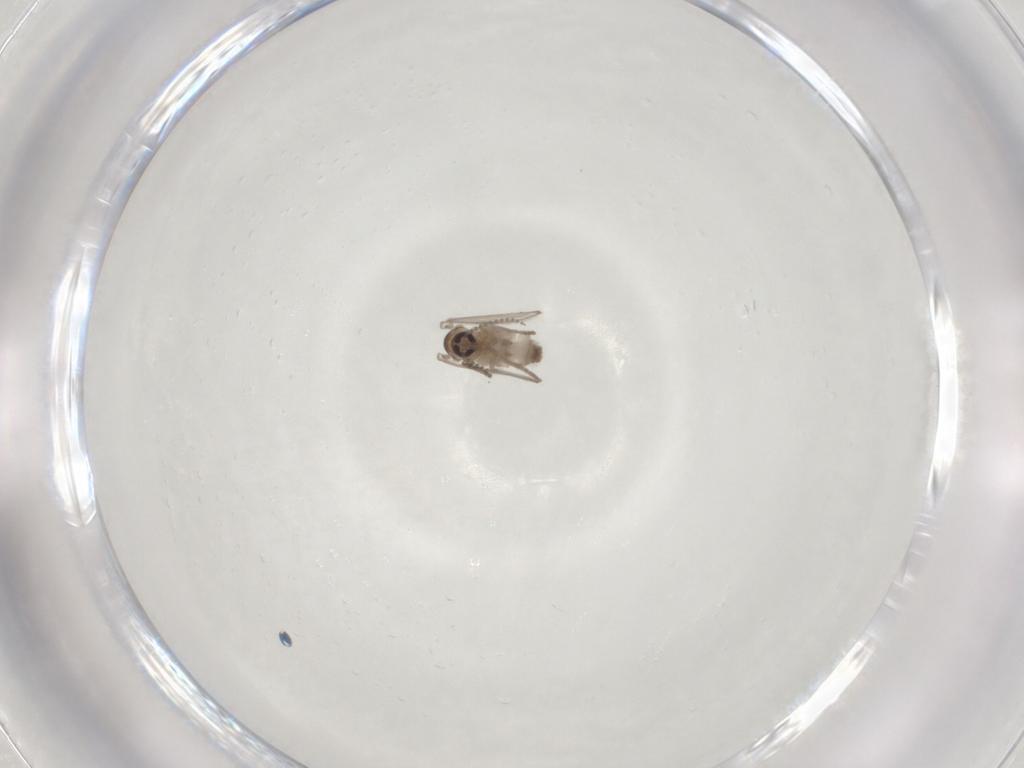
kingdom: Animalia
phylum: Arthropoda
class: Insecta
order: Diptera
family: Psychodidae
